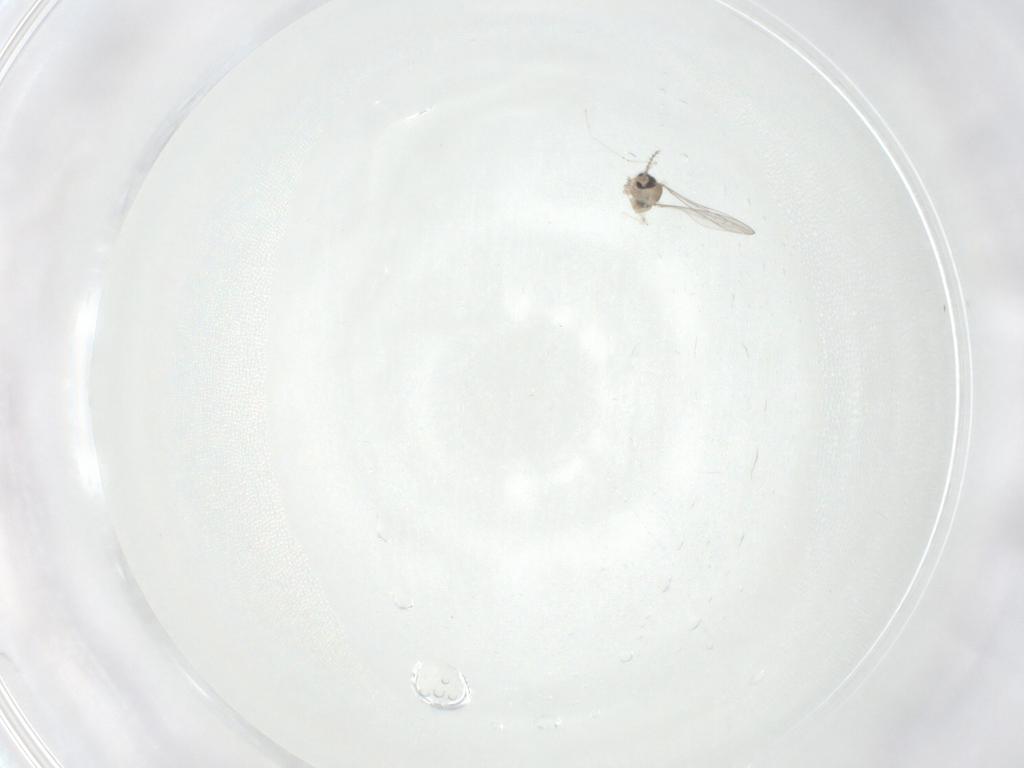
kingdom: Animalia
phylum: Arthropoda
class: Insecta
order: Diptera
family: Cecidomyiidae
